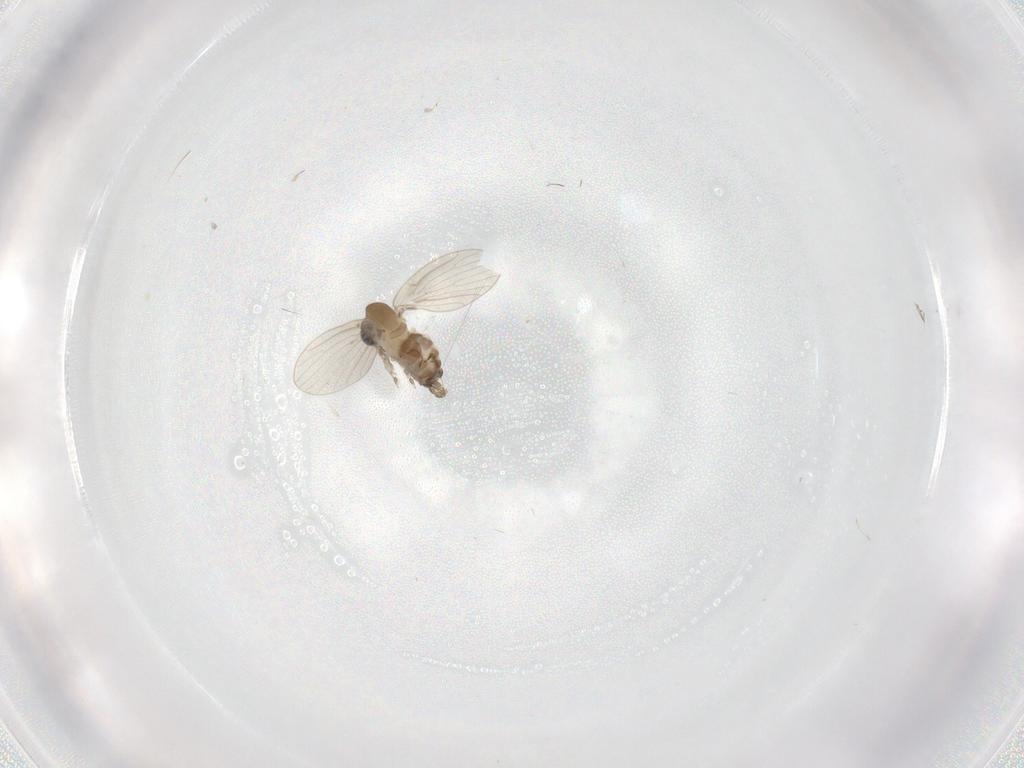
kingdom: Animalia
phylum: Arthropoda
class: Insecta
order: Diptera
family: Psychodidae
